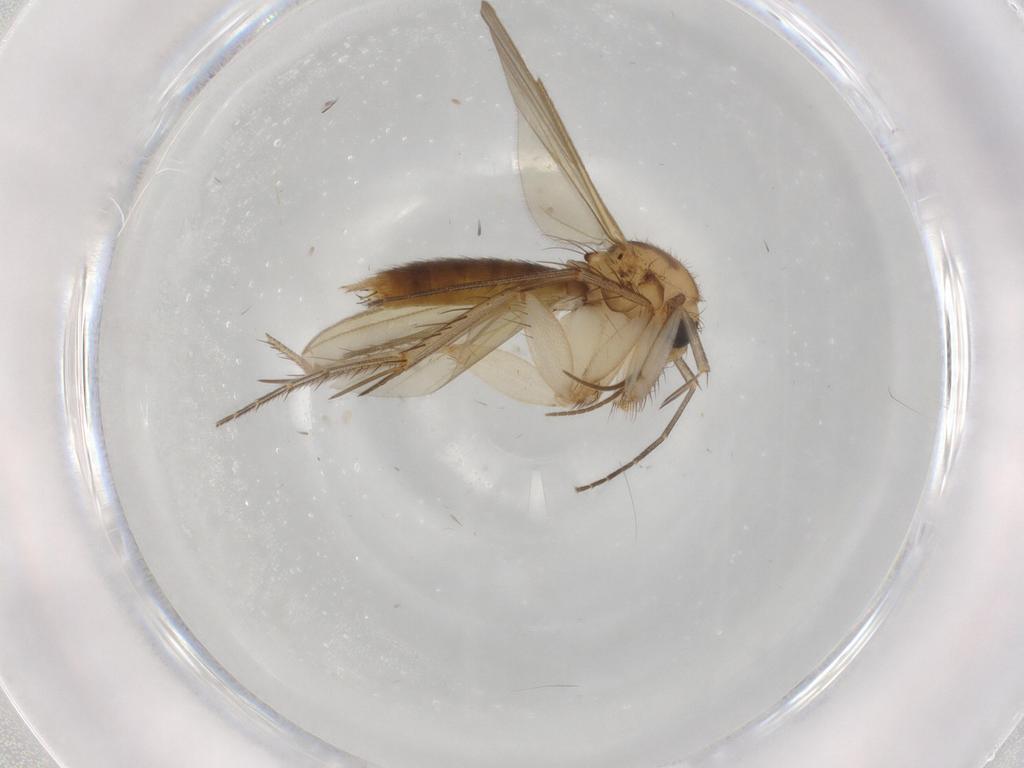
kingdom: Animalia
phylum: Arthropoda
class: Insecta
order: Diptera
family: Mycetophilidae
